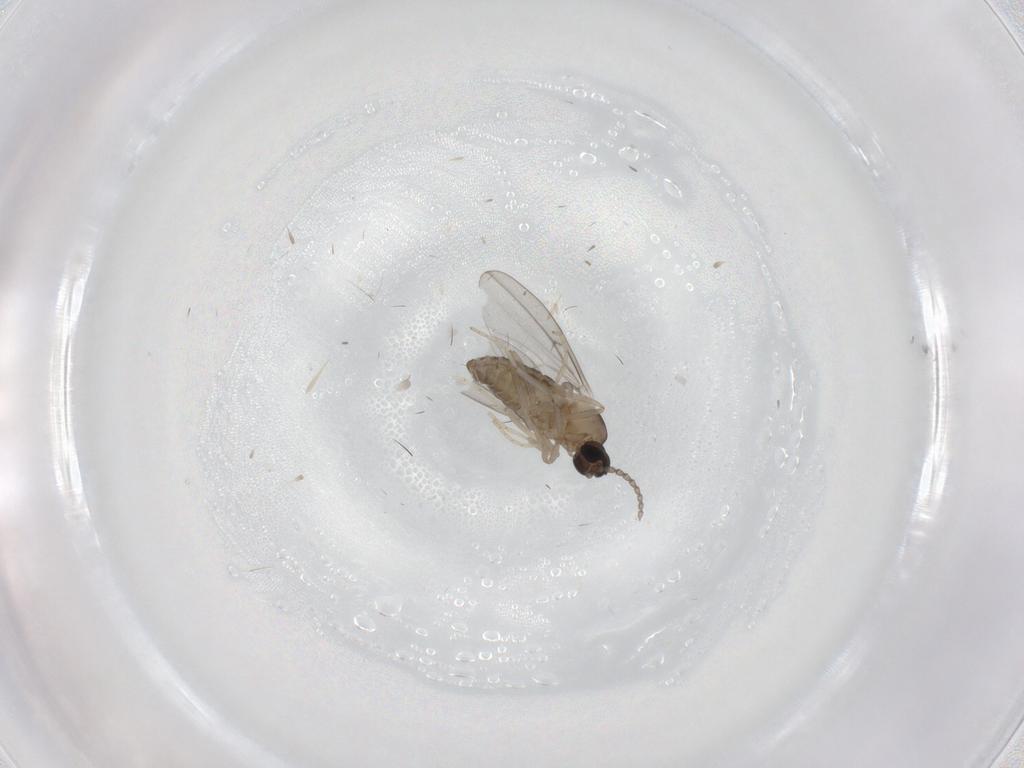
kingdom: Animalia
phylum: Arthropoda
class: Insecta
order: Diptera
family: Cecidomyiidae
